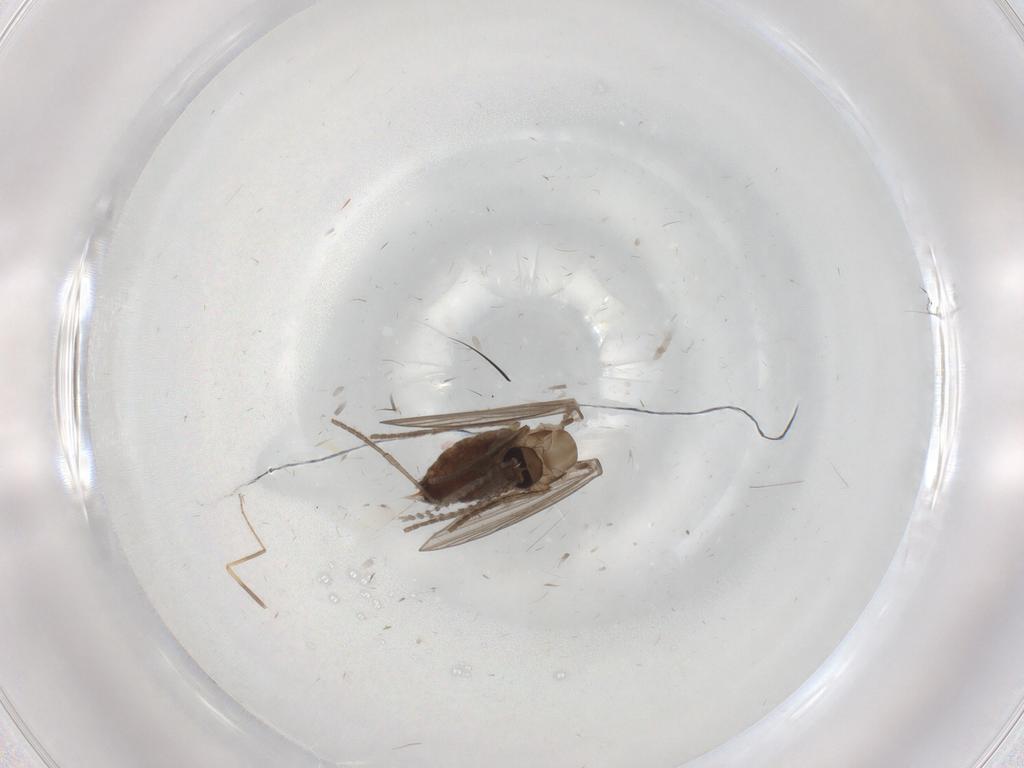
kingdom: Animalia
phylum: Arthropoda
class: Insecta
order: Diptera
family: Psychodidae
